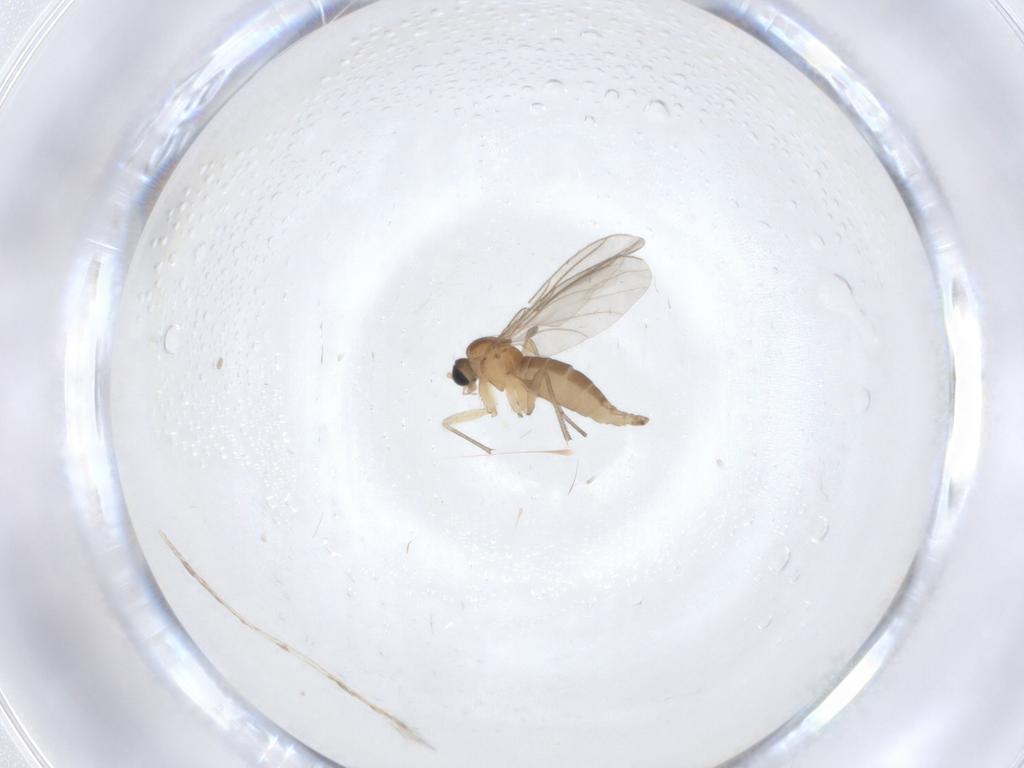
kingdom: Animalia
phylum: Arthropoda
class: Insecta
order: Diptera
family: Sciaridae
